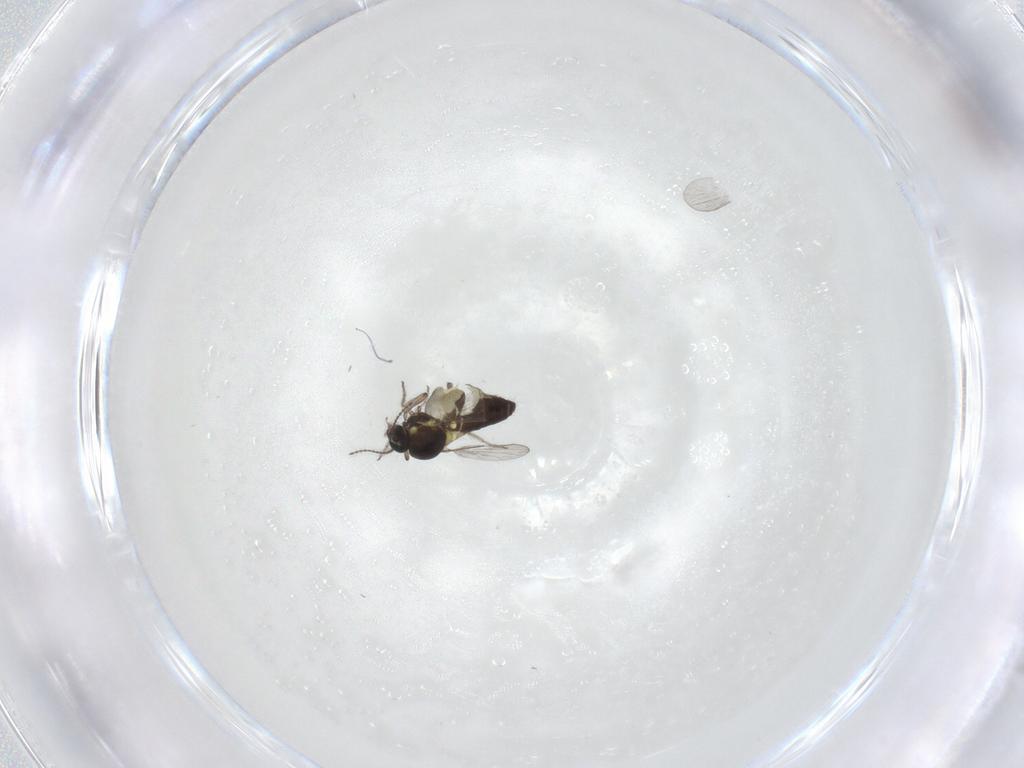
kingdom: Animalia
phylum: Arthropoda
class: Insecta
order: Diptera
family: Ceratopogonidae
